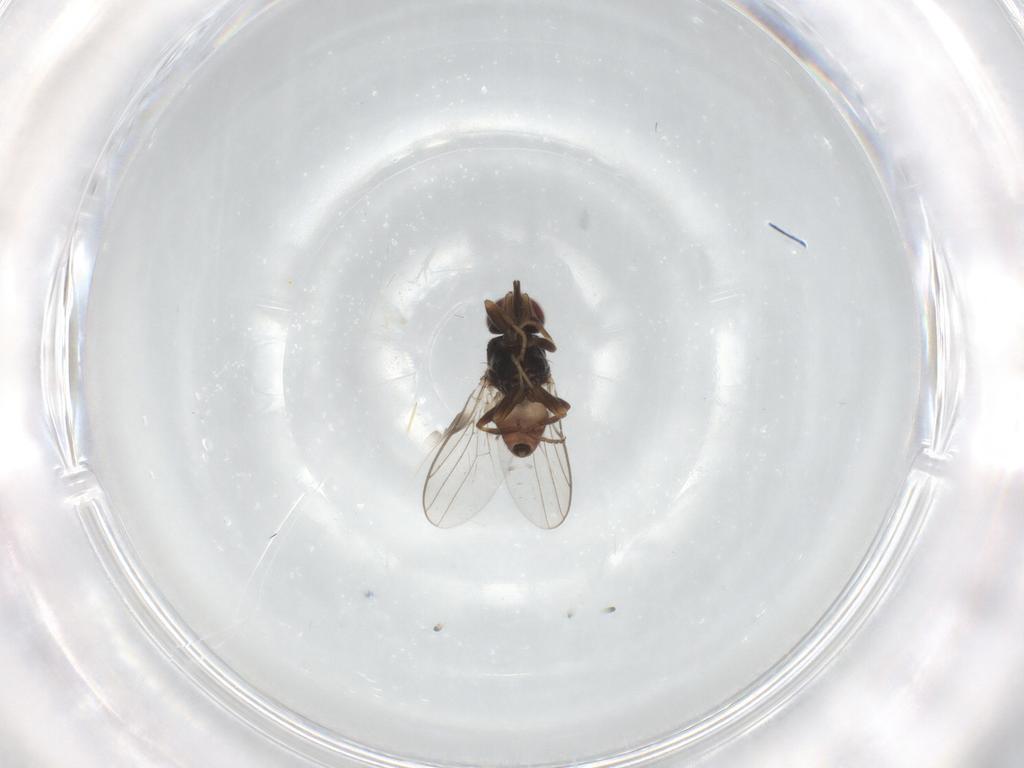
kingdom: Animalia
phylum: Arthropoda
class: Insecta
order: Diptera
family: Chloropidae
